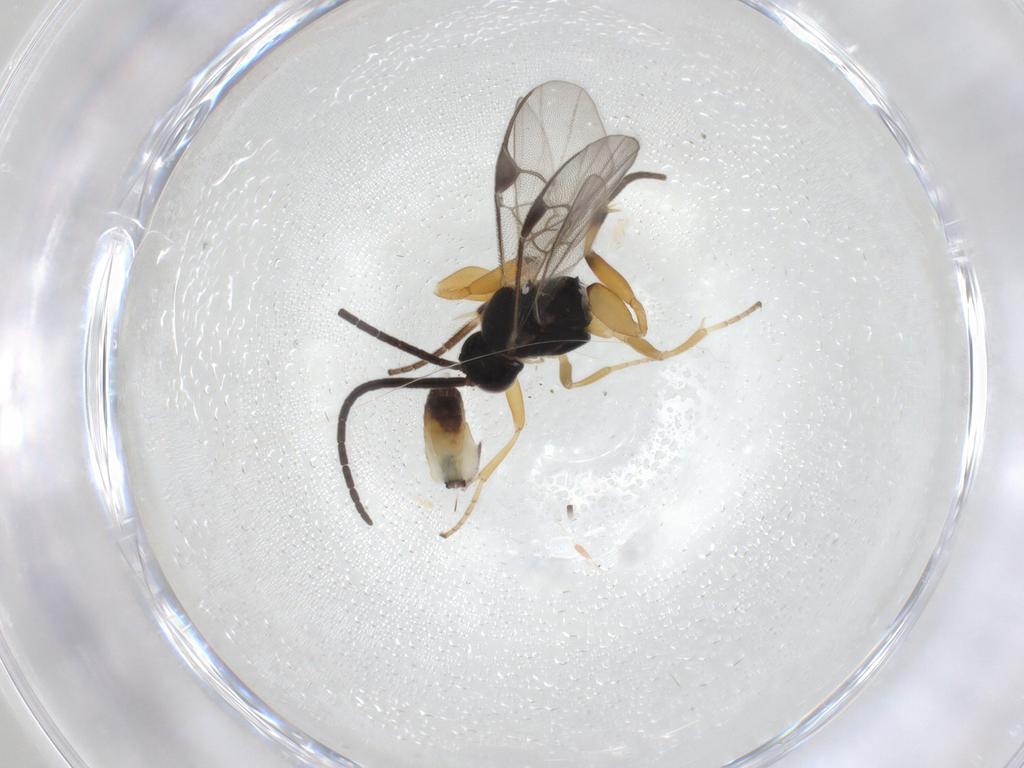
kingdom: Animalia
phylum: Arthropoda
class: Insecta
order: Hymenoptera
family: Braconidae
